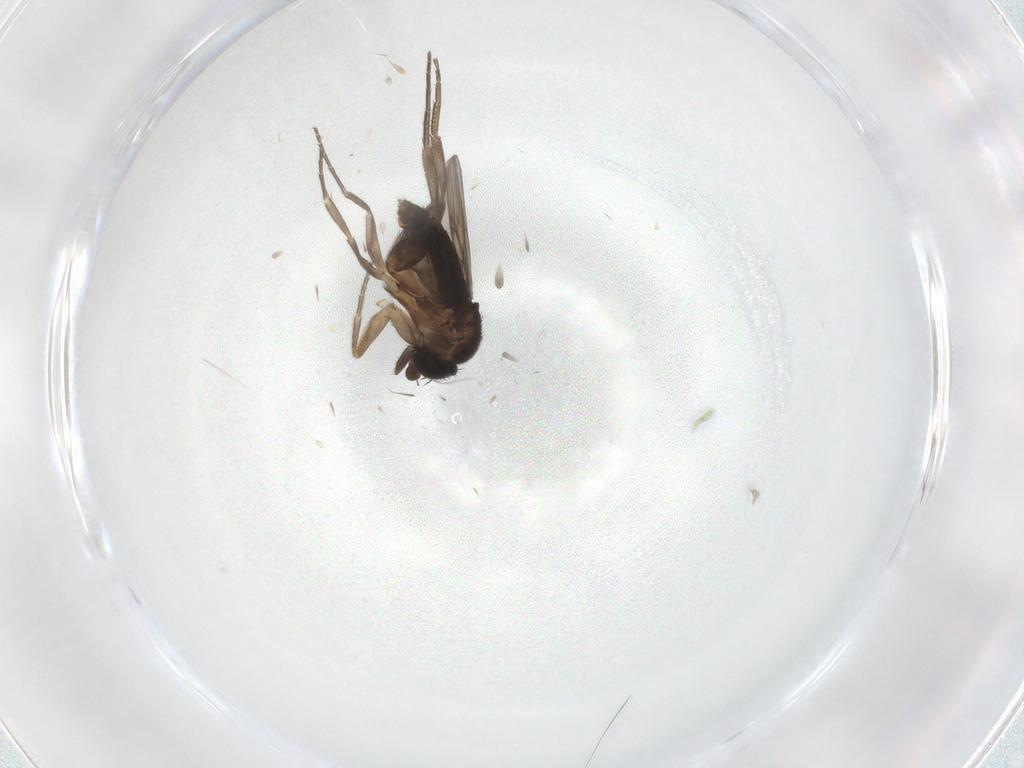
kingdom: Animalia
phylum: Arthropoda
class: Insecta
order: Diptera
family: Phoridae
